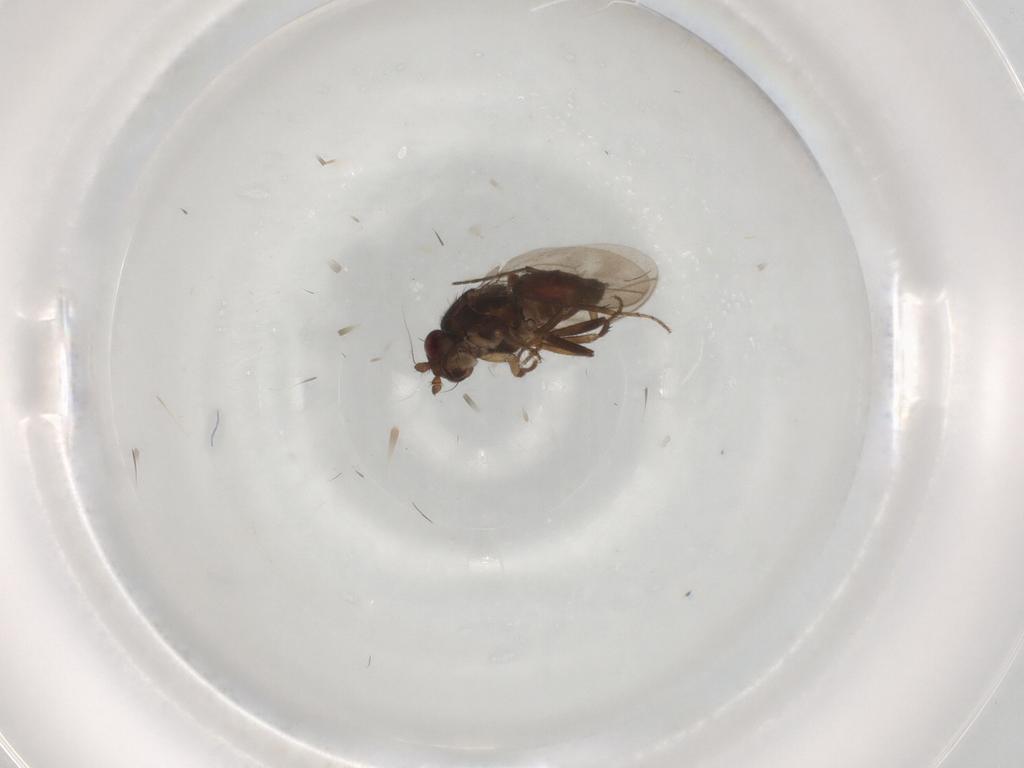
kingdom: Animalia
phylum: Arthropoda
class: Insecta
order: Diptera
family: Sphaeroceridae
